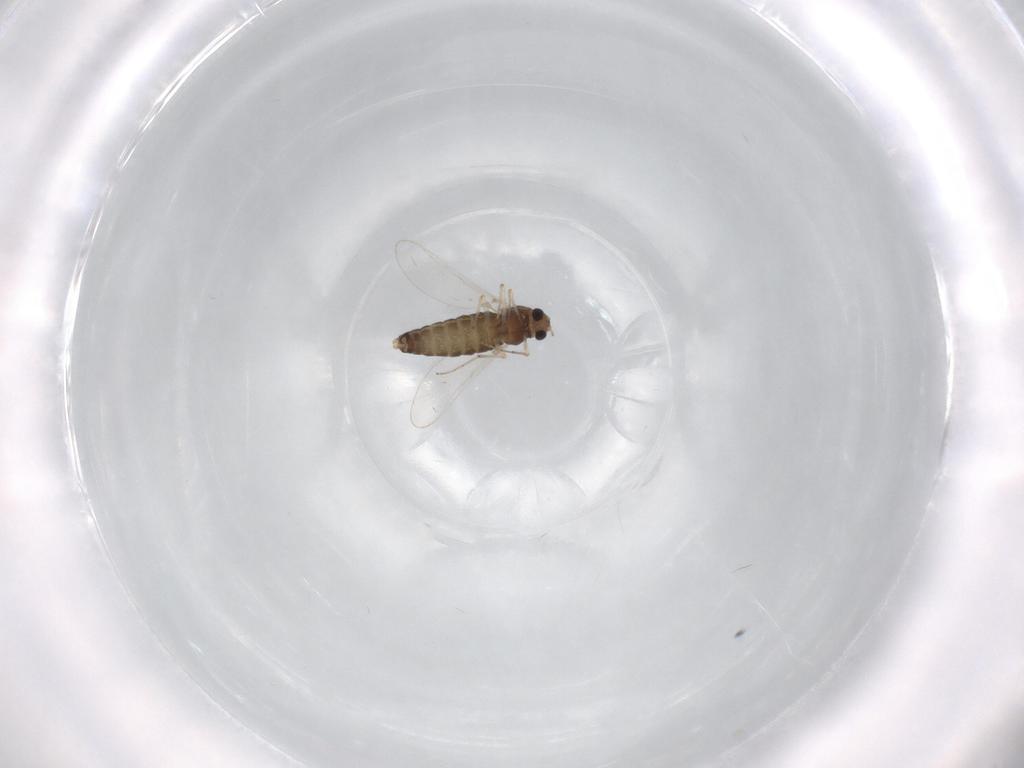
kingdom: Animalia
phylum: Arthropoda
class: Insecta
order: Diptera
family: Chironomidae
